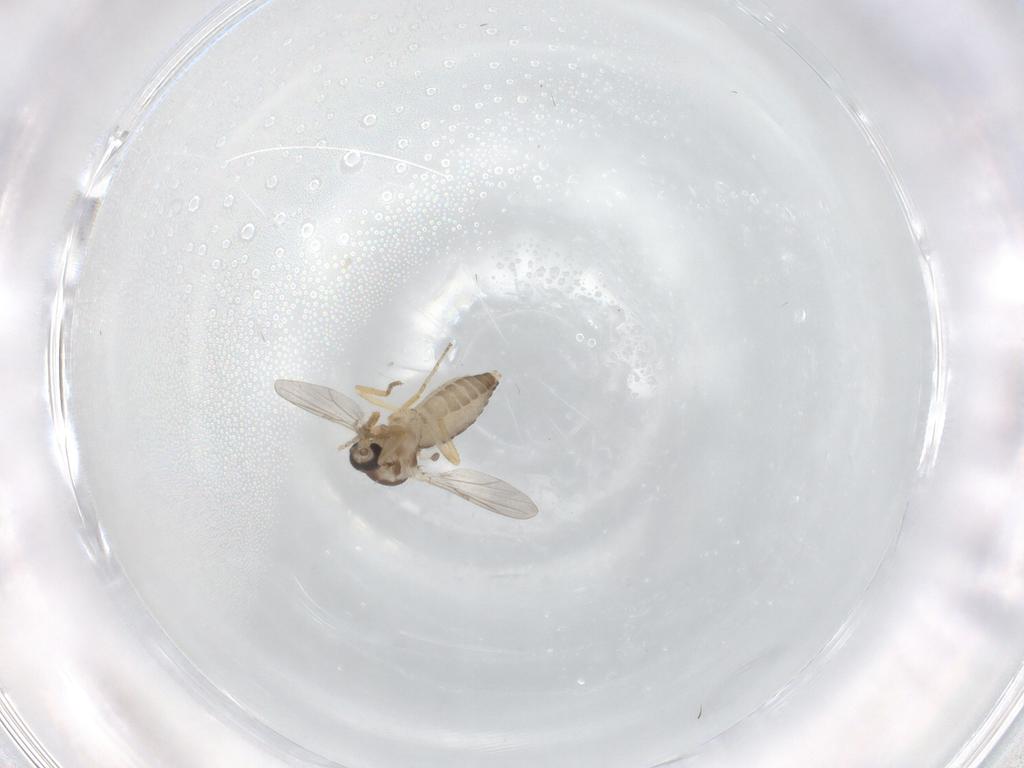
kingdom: Animalia
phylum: Arthropoda
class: Insecta
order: Diptera
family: Ceratopogonidae
